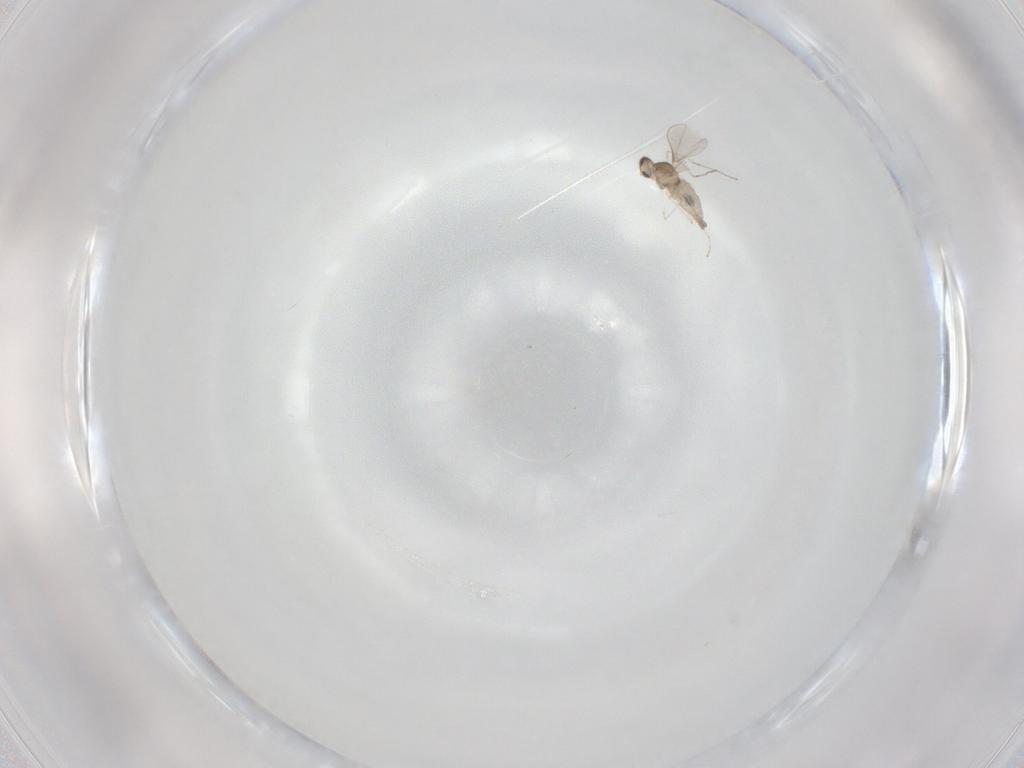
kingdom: Animalia
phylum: Arthropoda
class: Insecta
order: Diptera
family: Cecidomyiidae
